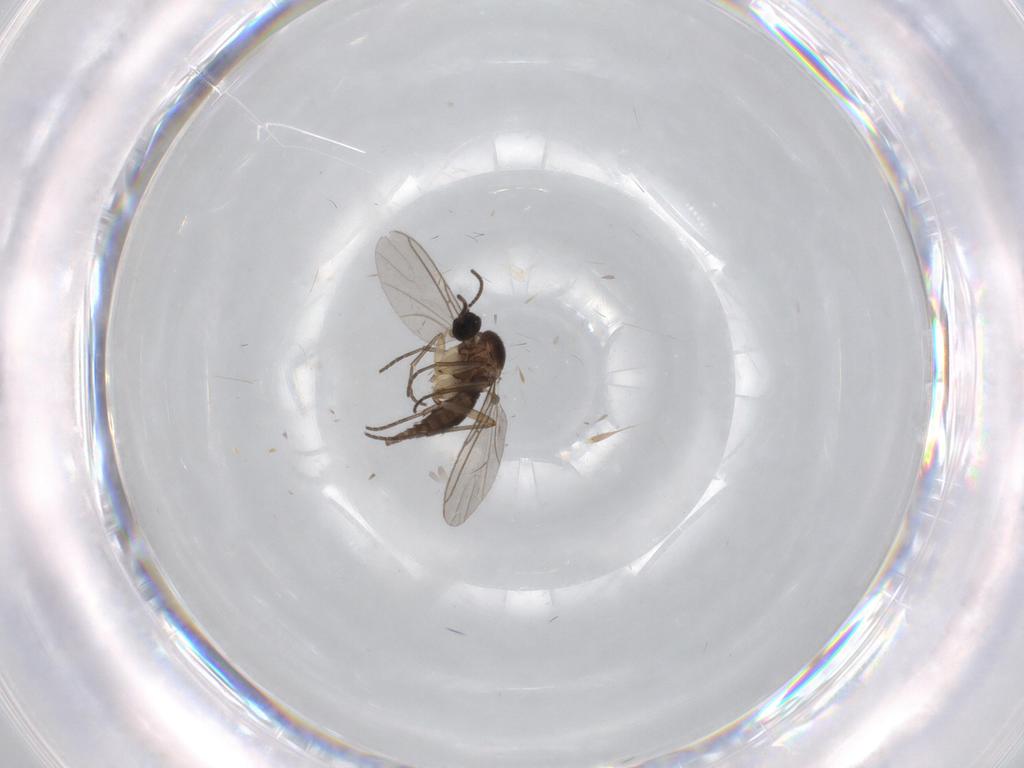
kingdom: Animalia
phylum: Arthropoda
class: Insecta
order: Diptera
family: Sciaridae
